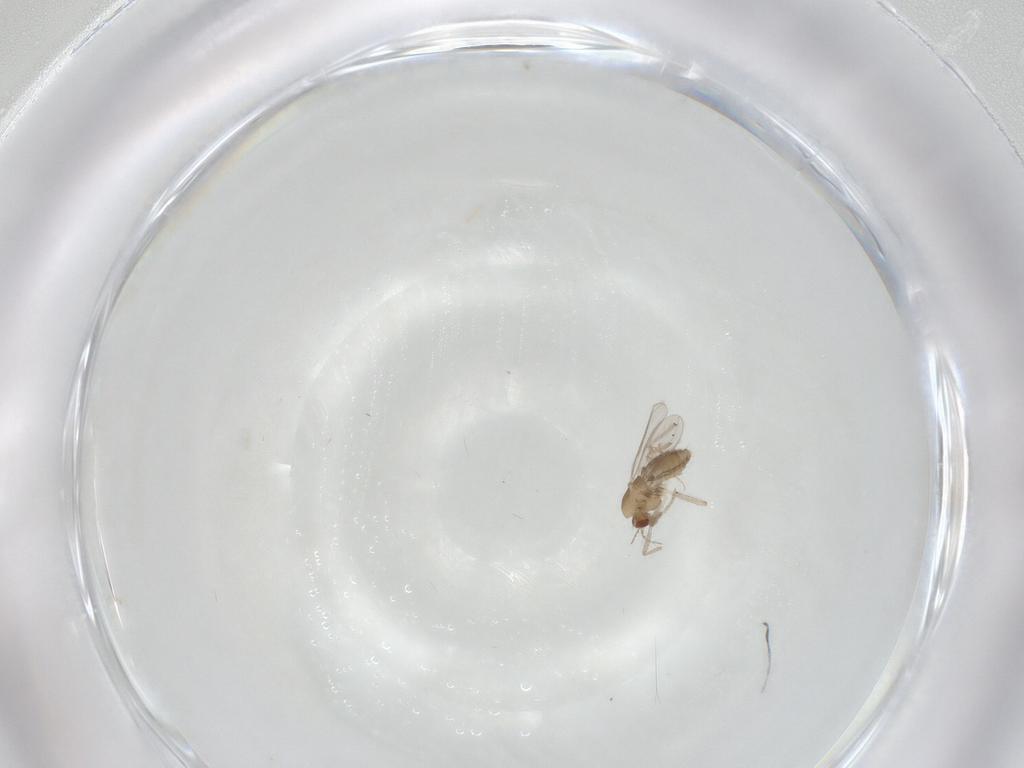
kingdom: Animalia
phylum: Arthropoda
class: Insecta
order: Diptera
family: Chironomidae
